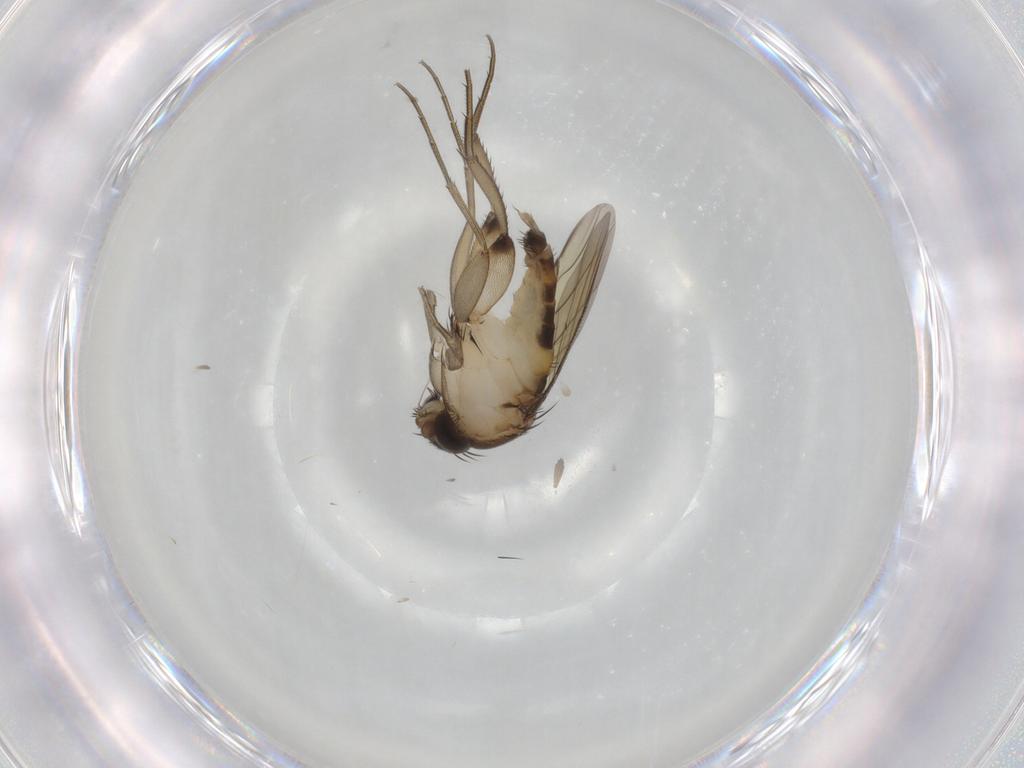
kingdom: Animalia
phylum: Arthropoda
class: Insecta
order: Diptera
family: Phoridae
